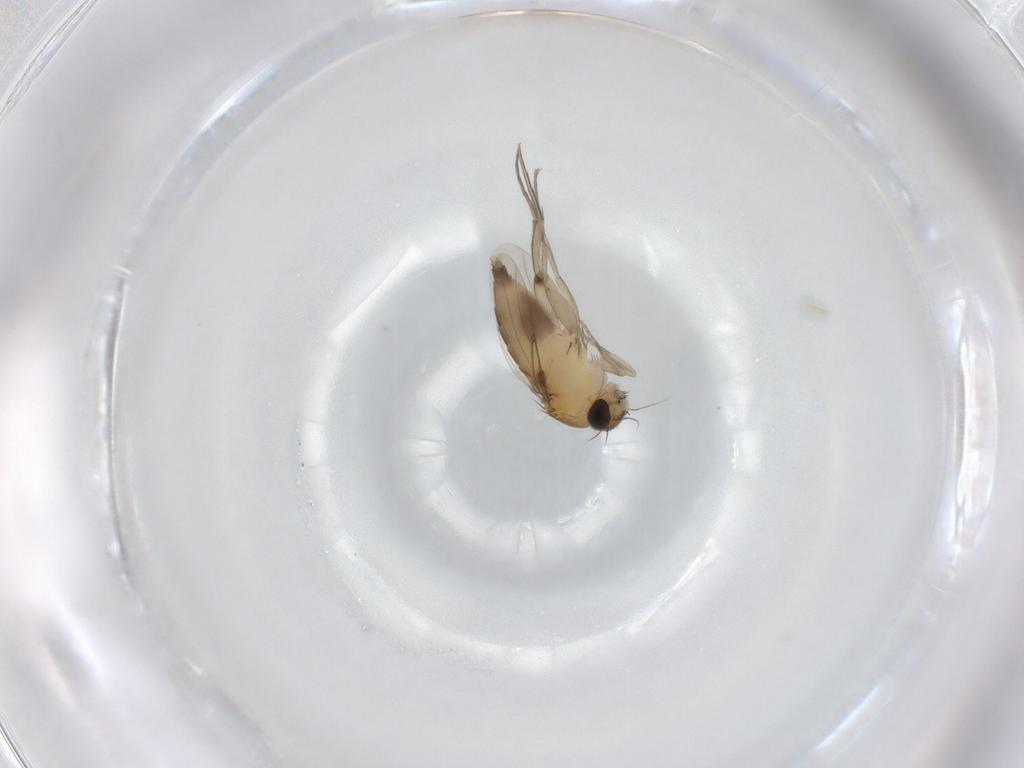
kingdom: Animalia
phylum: Arthropoda
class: Insecta
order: Diptera
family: Phoridae
